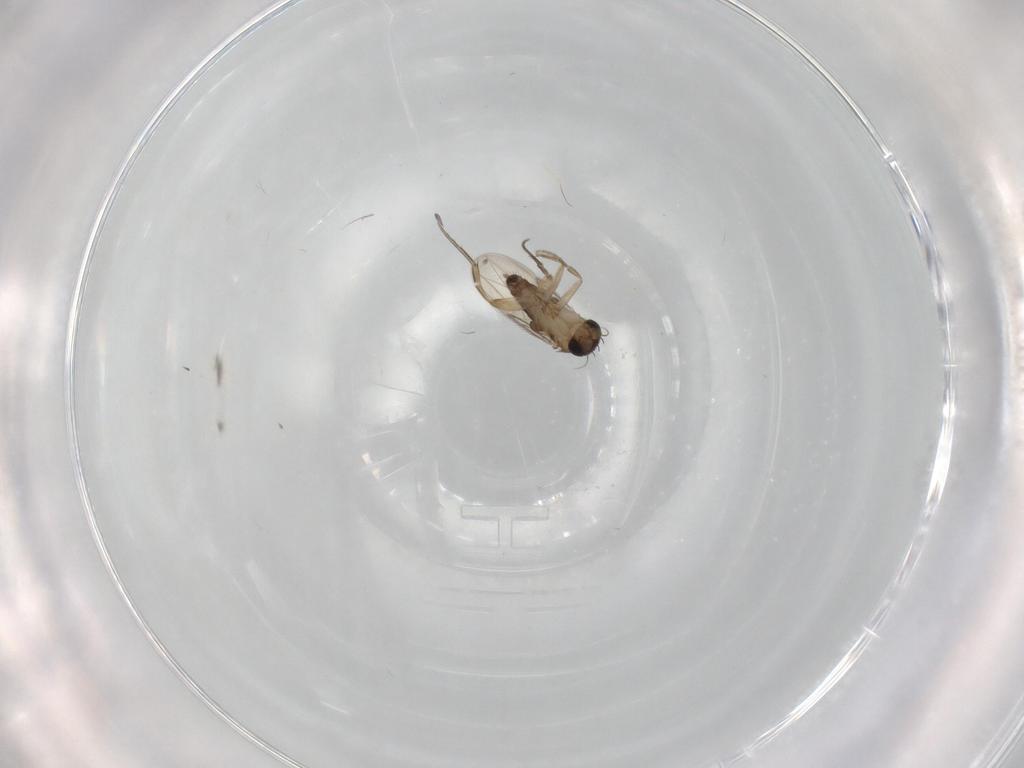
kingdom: Animalia
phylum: Arthropoda
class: Insecta
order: Diptera
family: Phoridae
